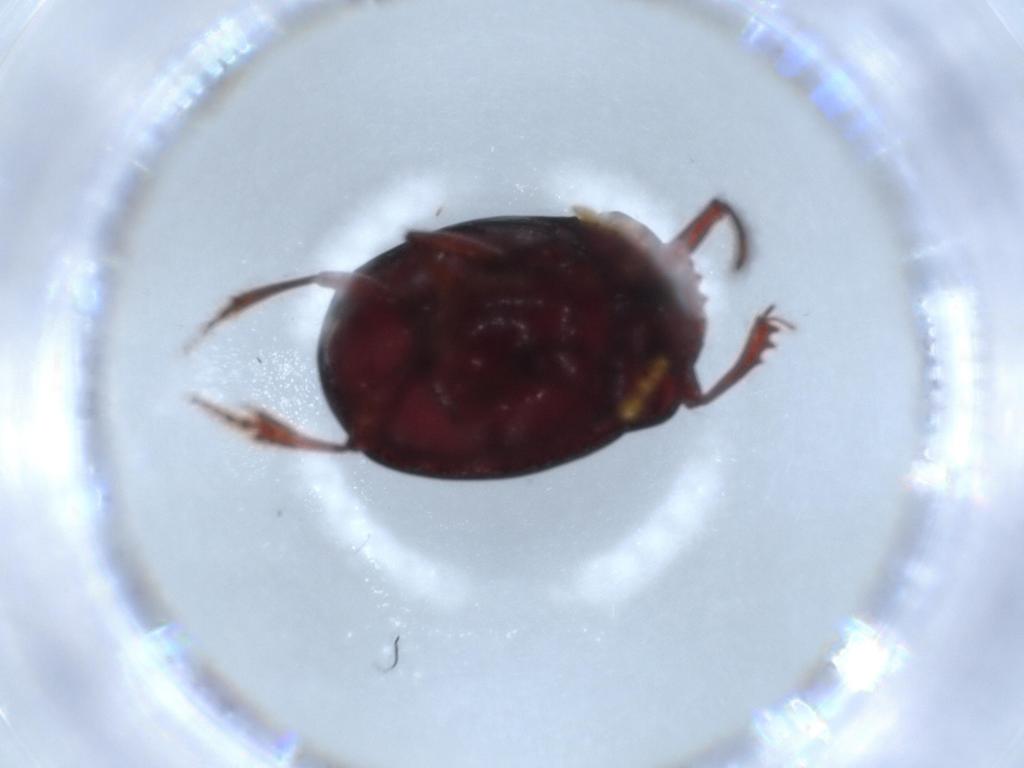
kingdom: Animalia
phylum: Arthropoda
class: Insecta
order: Coleoptera
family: Scarabaeidae
